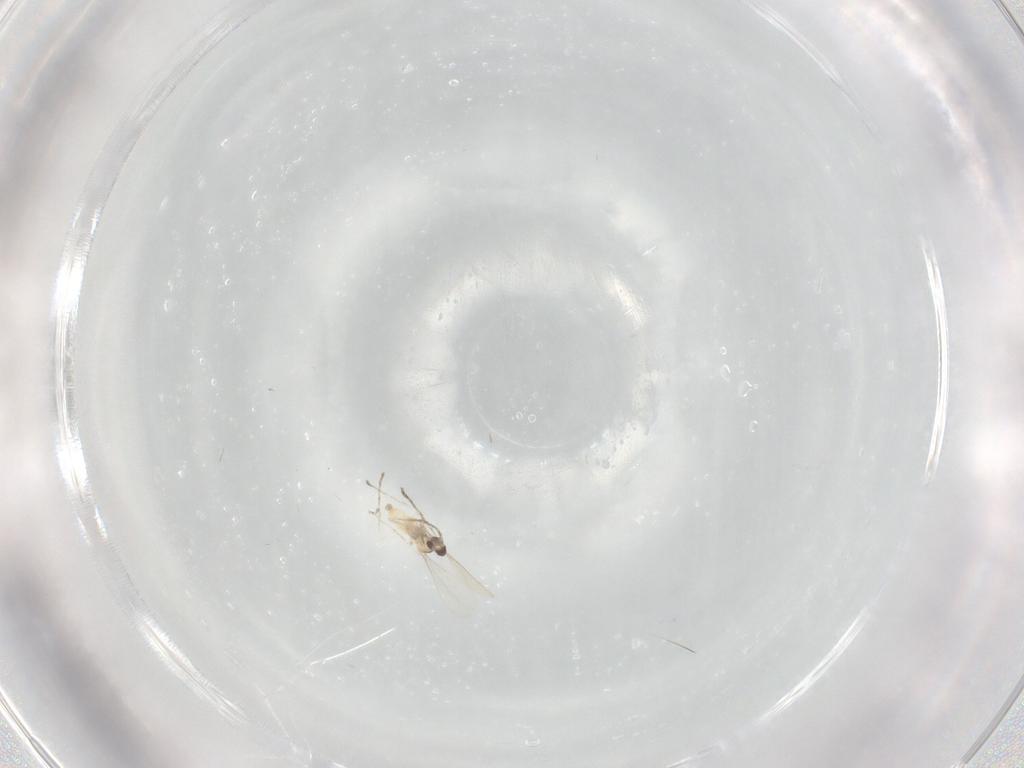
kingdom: Animalia
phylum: Arthropoda
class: Insecta
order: Diptera
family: Cecidomyiidae
